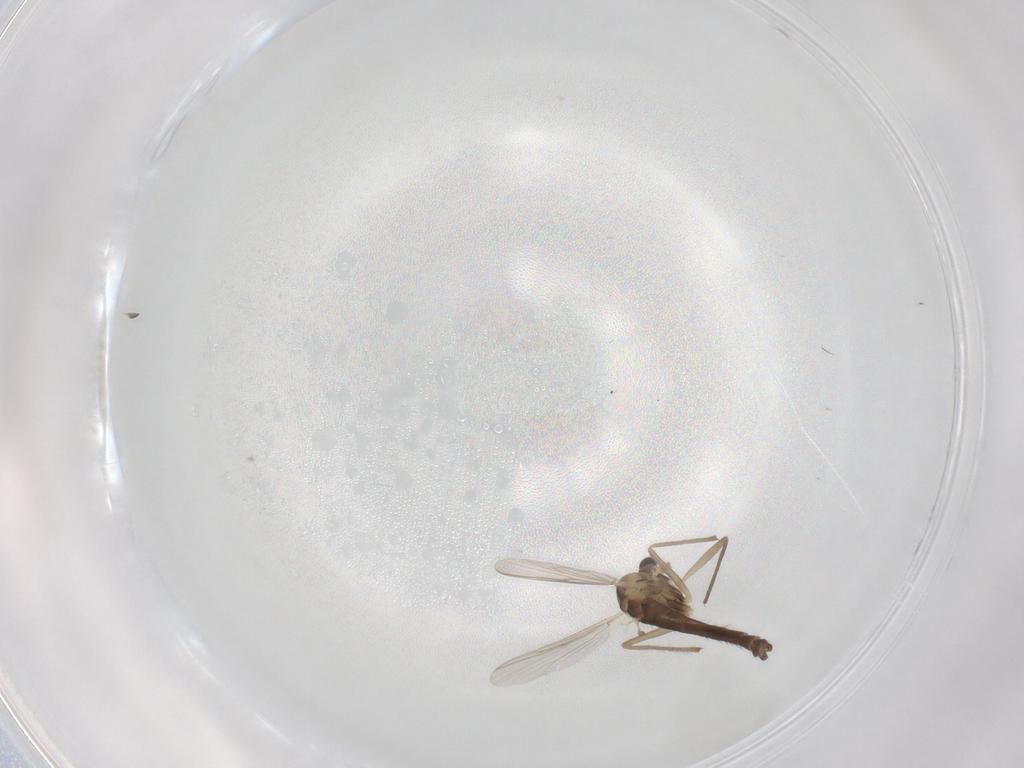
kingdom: Animalia
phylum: Arthropoda
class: Insecta
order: Diptera
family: Chironomidae
